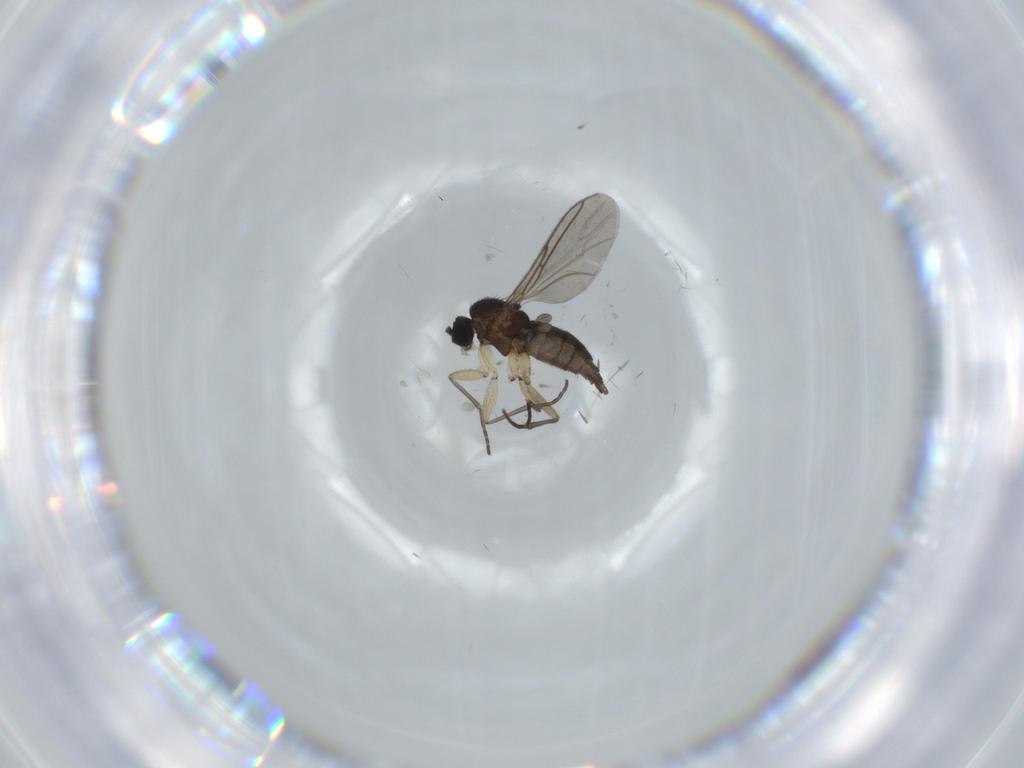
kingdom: Animalia
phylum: Arthropoda
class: Insecta
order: Diptera
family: Sciaridae
